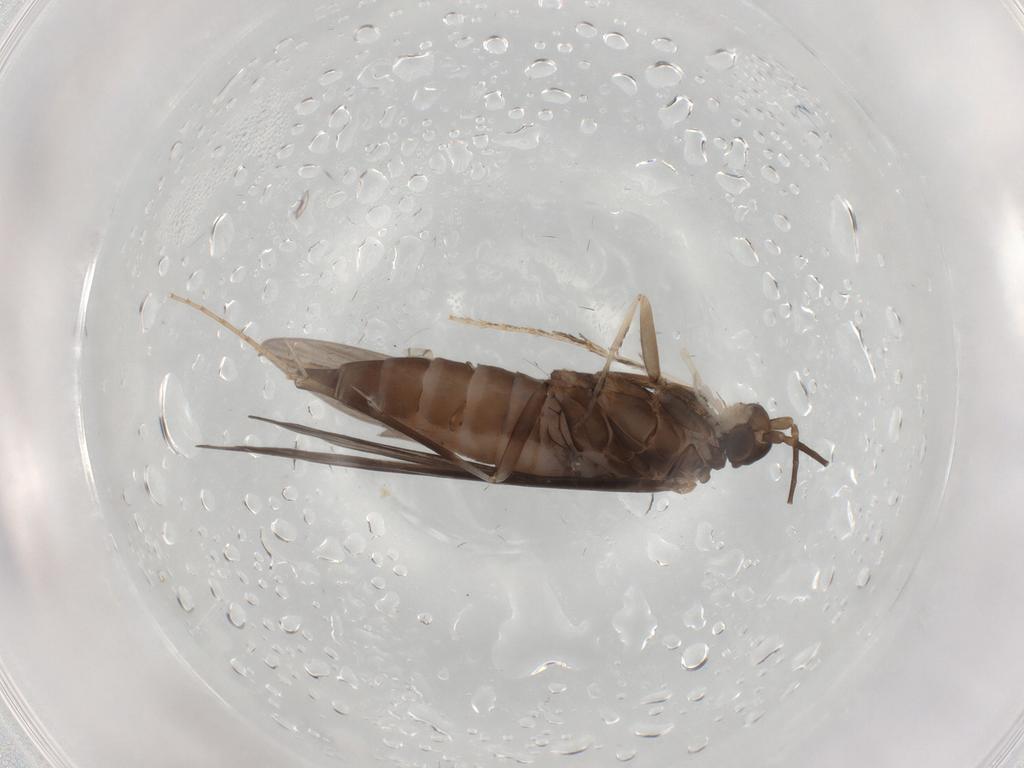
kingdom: Animalia
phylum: Arthropoda
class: Insecta
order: Trichoptera
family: Xiphocentronidae
